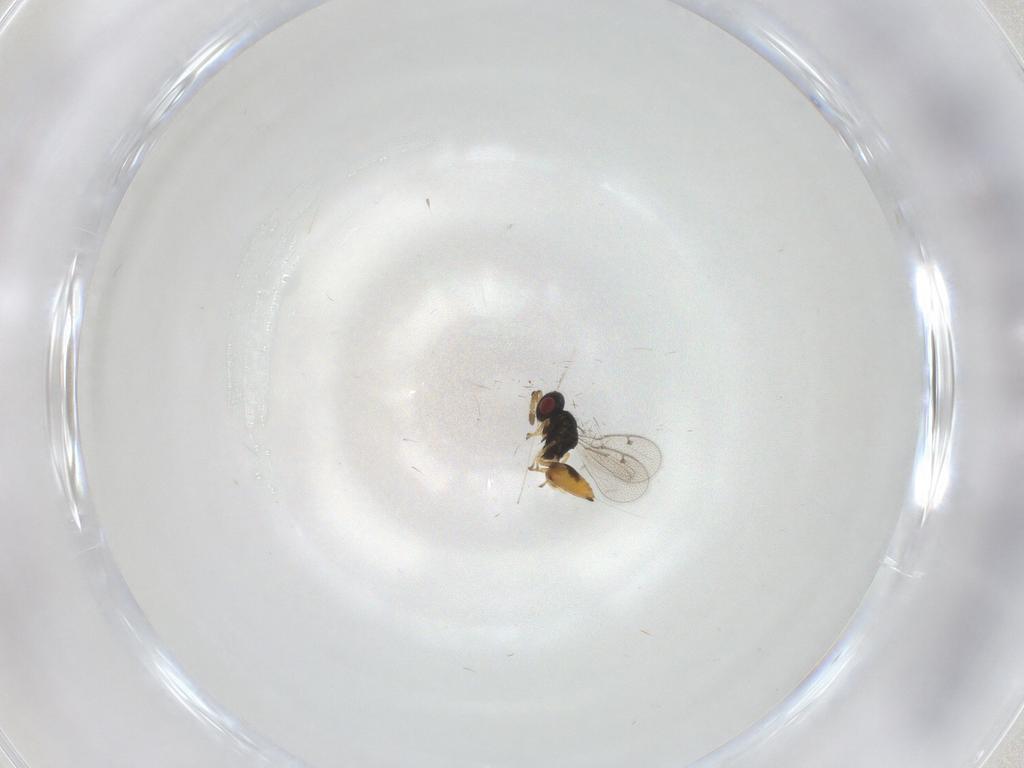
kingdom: Animalia
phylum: Arthropoda
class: Insecta
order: Hymenoptera
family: Pteromalidae
